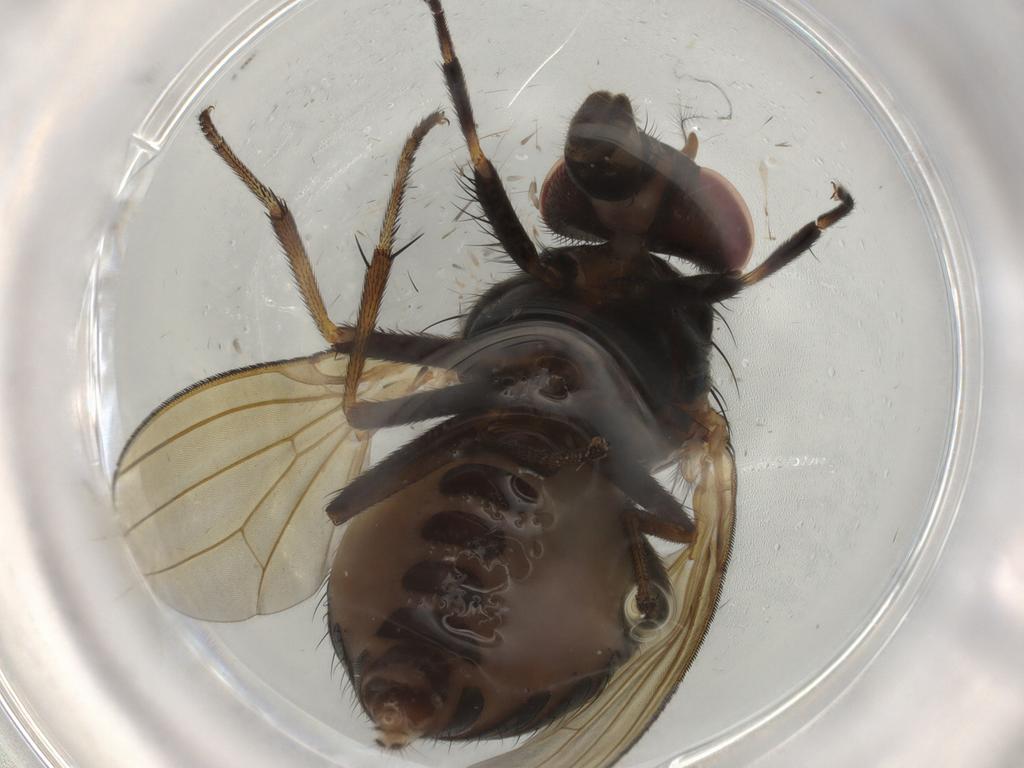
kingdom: Animalia
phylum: Arthropoda
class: Insecta
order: Diptera
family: Lauxaniidae
